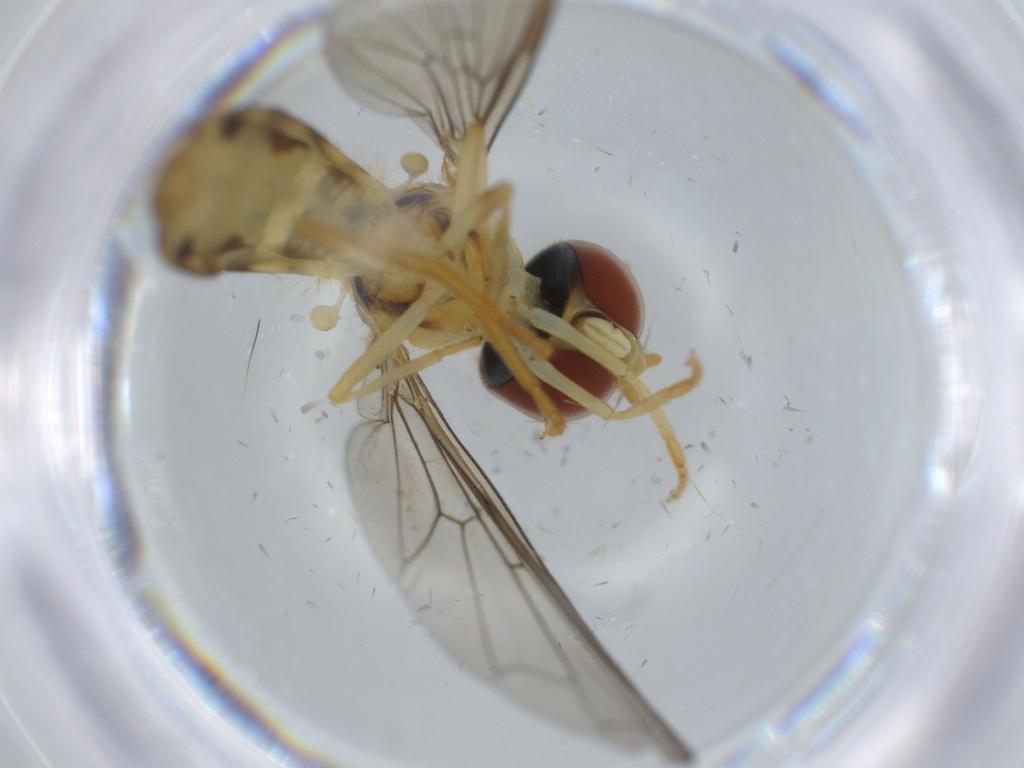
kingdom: Animalia
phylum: Arthropoda
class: Insecta
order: Diptera
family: Syrphidae
